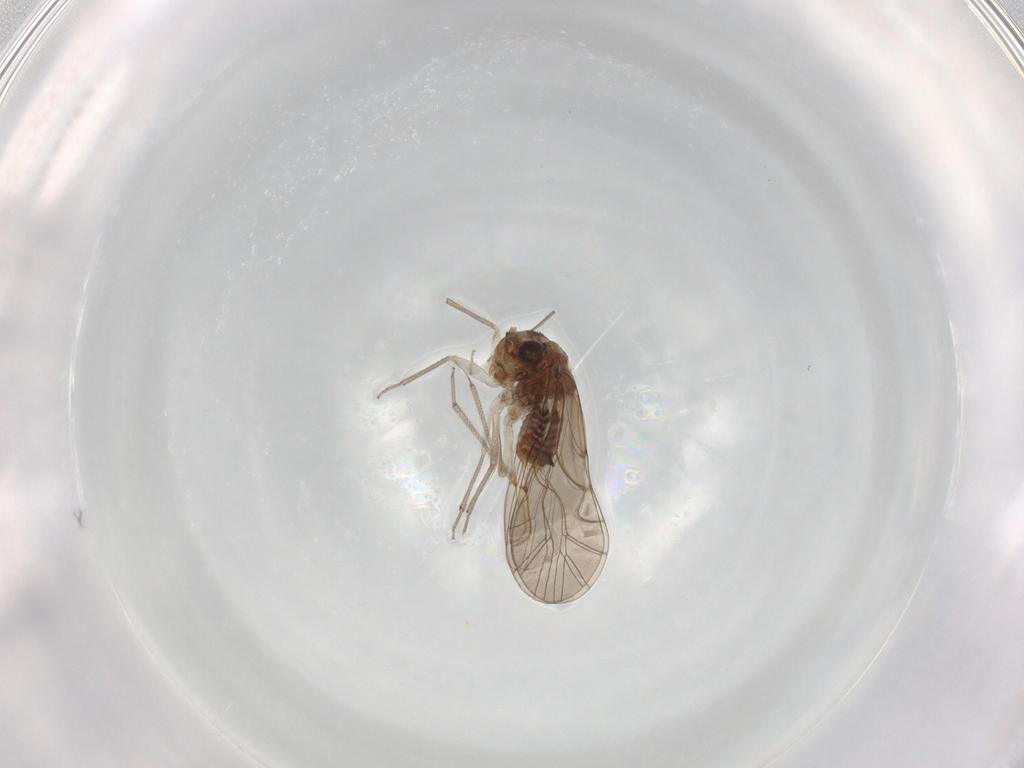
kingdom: Animalia
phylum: Arthropoda
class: Insecta
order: Psocodea
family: Lachesillidae
